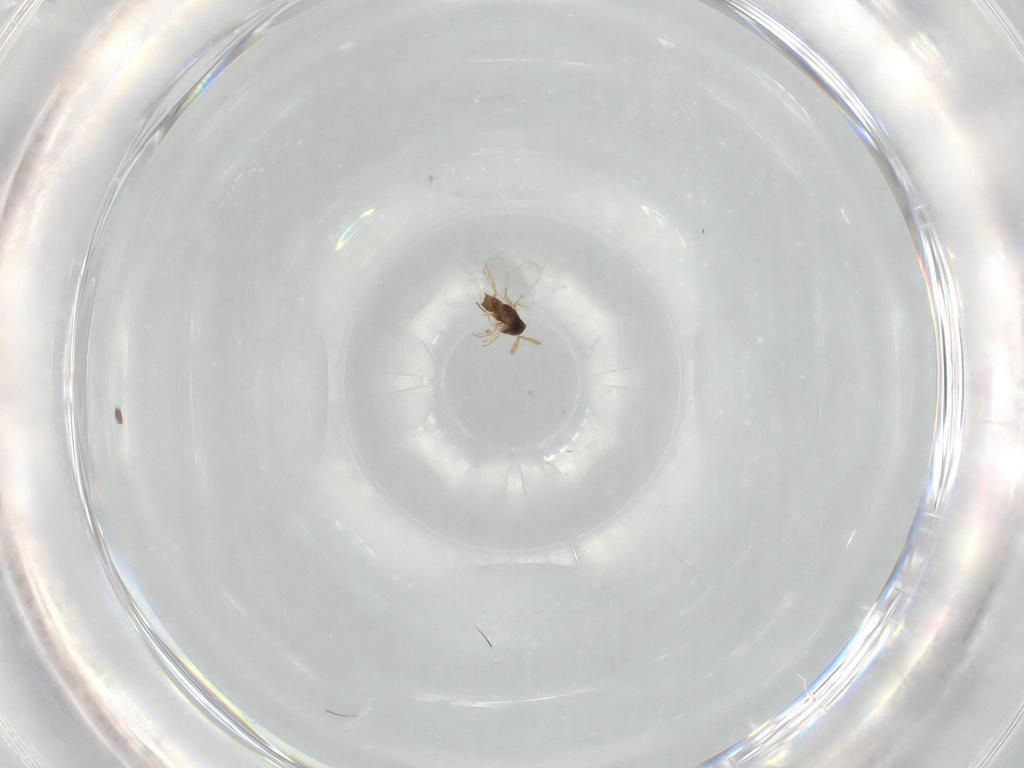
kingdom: Animalia
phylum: Arthropoda
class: Insecta
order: Hymenoptera
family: Encyrtidae
